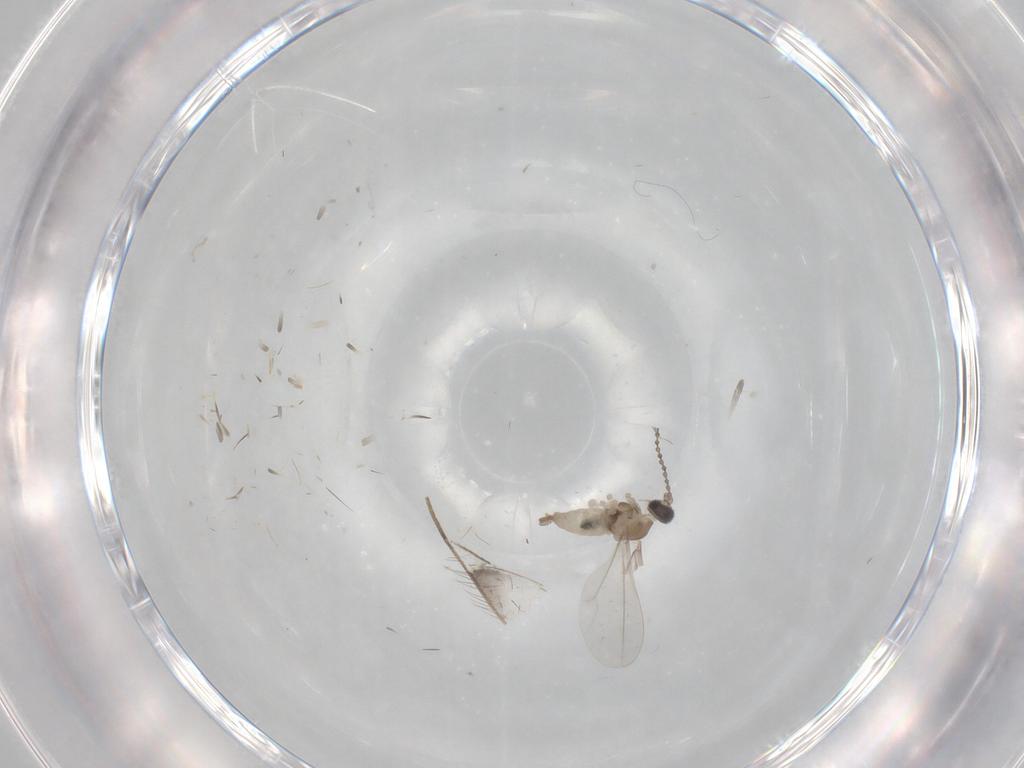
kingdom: Animalia
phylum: Arthropoda
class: Insecta
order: Diptera
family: Cecidomyiidae
